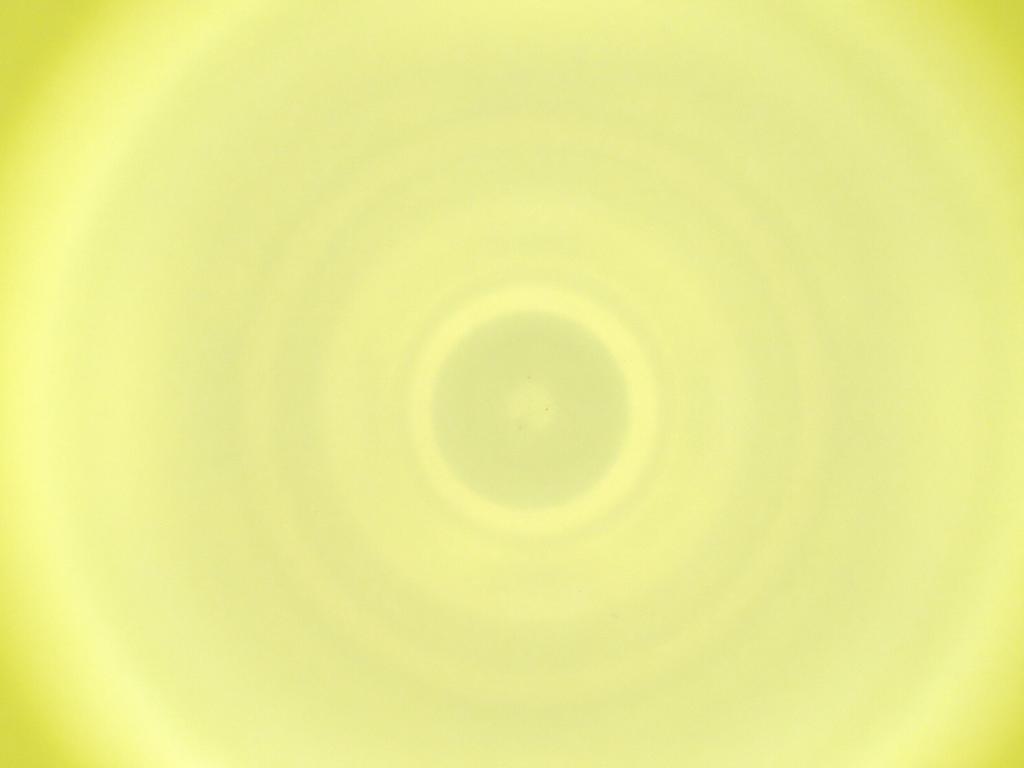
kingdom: Animalia
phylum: Arthropoda
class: Insecta
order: Diptera
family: Cecidomyiidae
